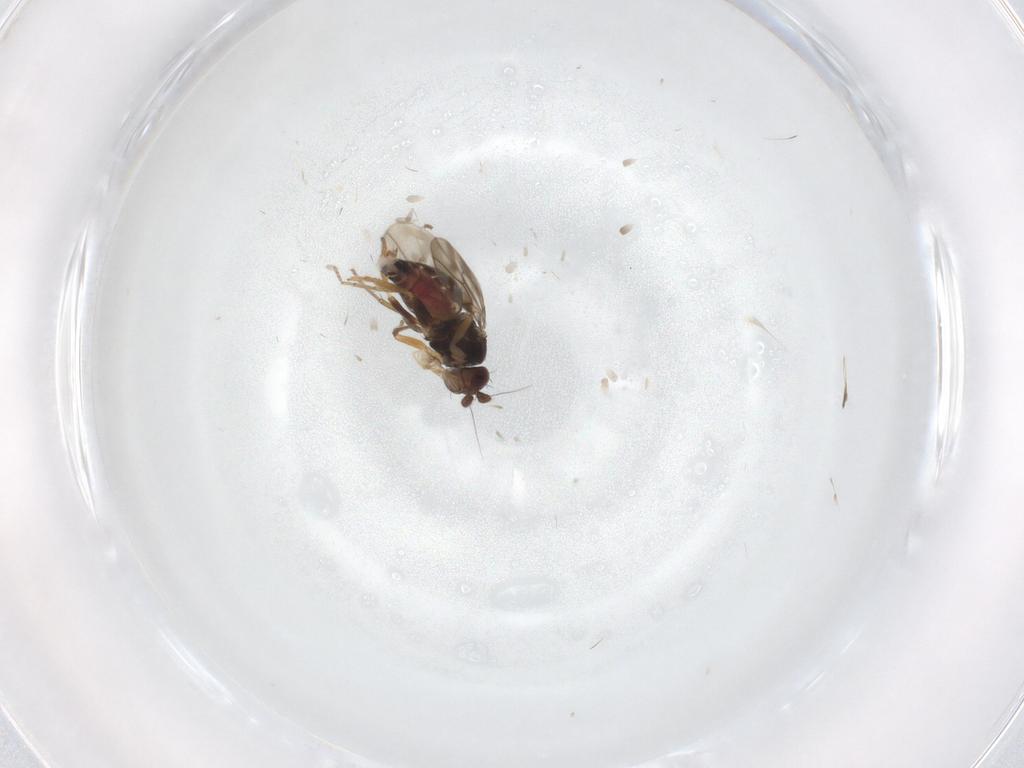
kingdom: Animalia
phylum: Arthropoda
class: Insecta
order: Diptera
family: Sphaeroceridae
